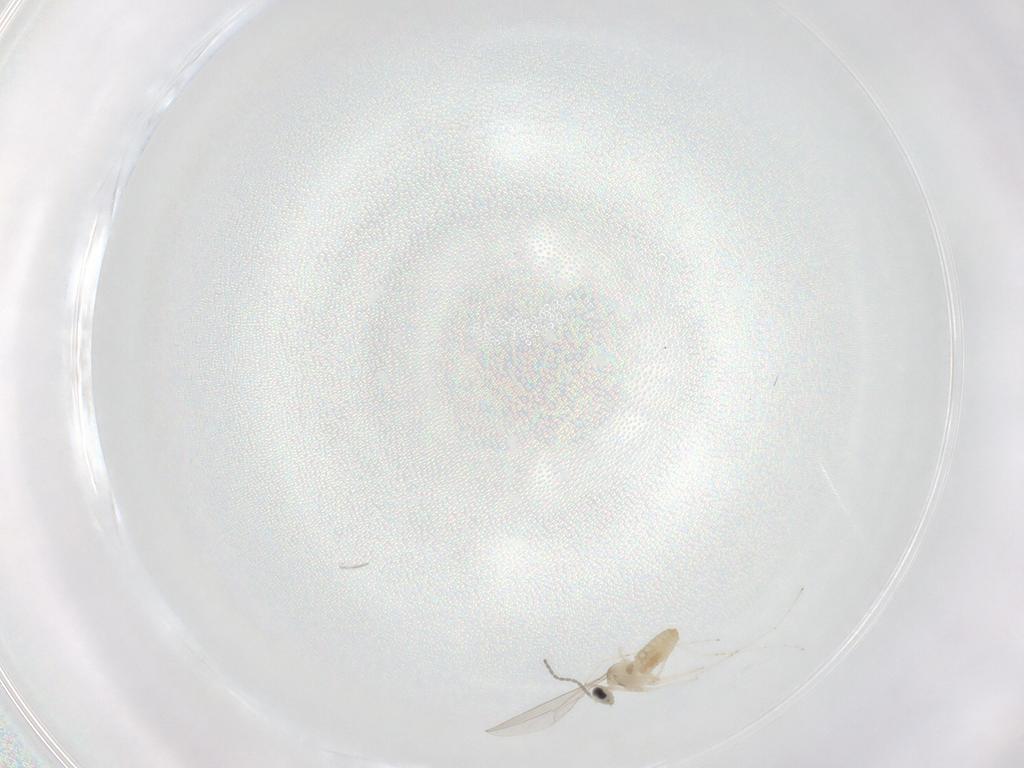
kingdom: Animalia
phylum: Arthropoda
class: Insecta
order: Diptera
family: Cecidomyiidae
